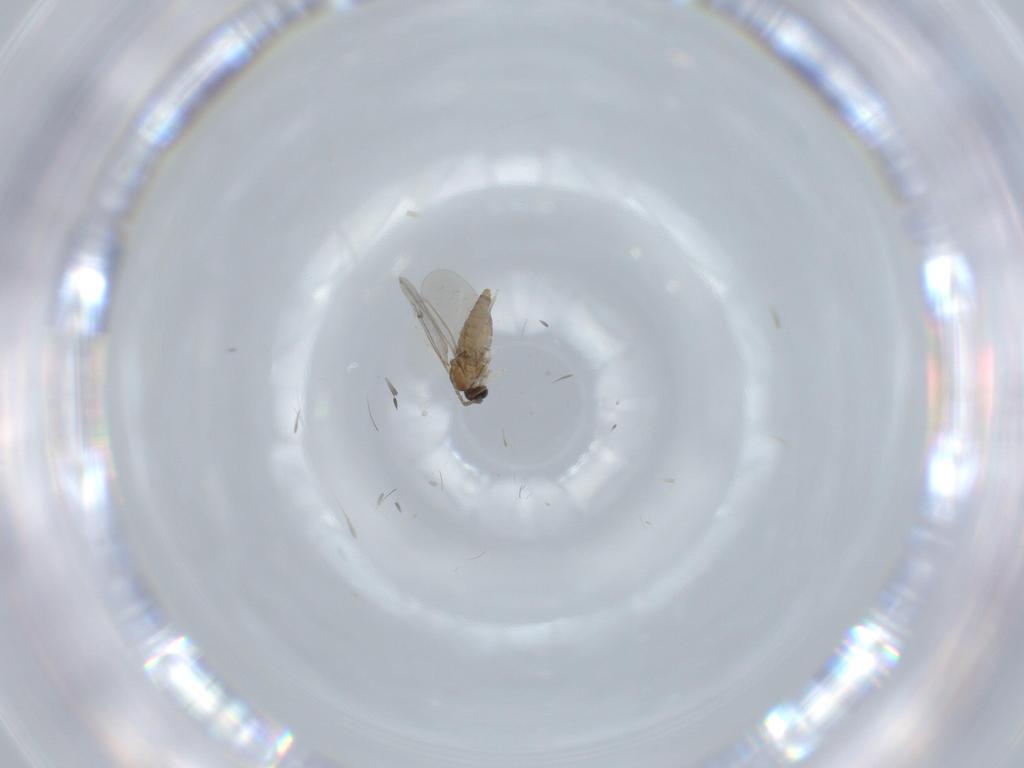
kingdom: Animalia
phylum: Arthropoda
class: Insecta
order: Diptera
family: Cecidomyiidae
